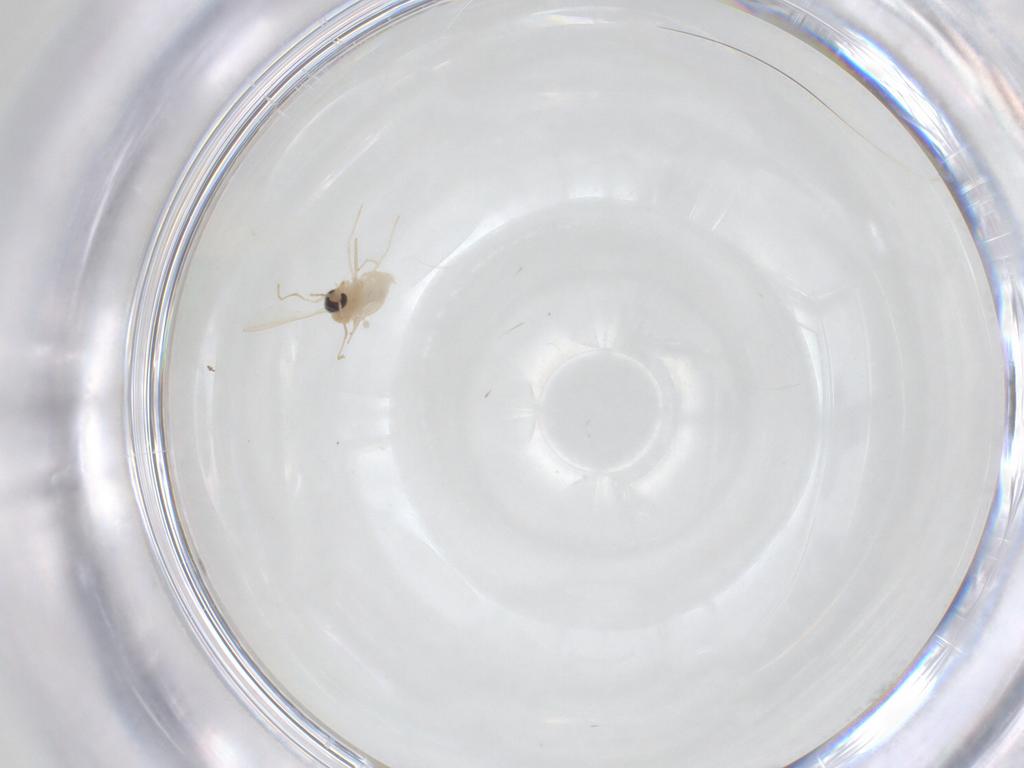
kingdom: Animalia
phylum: Arthropoda
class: Insecta
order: Diptera
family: Cecidomyiidae
